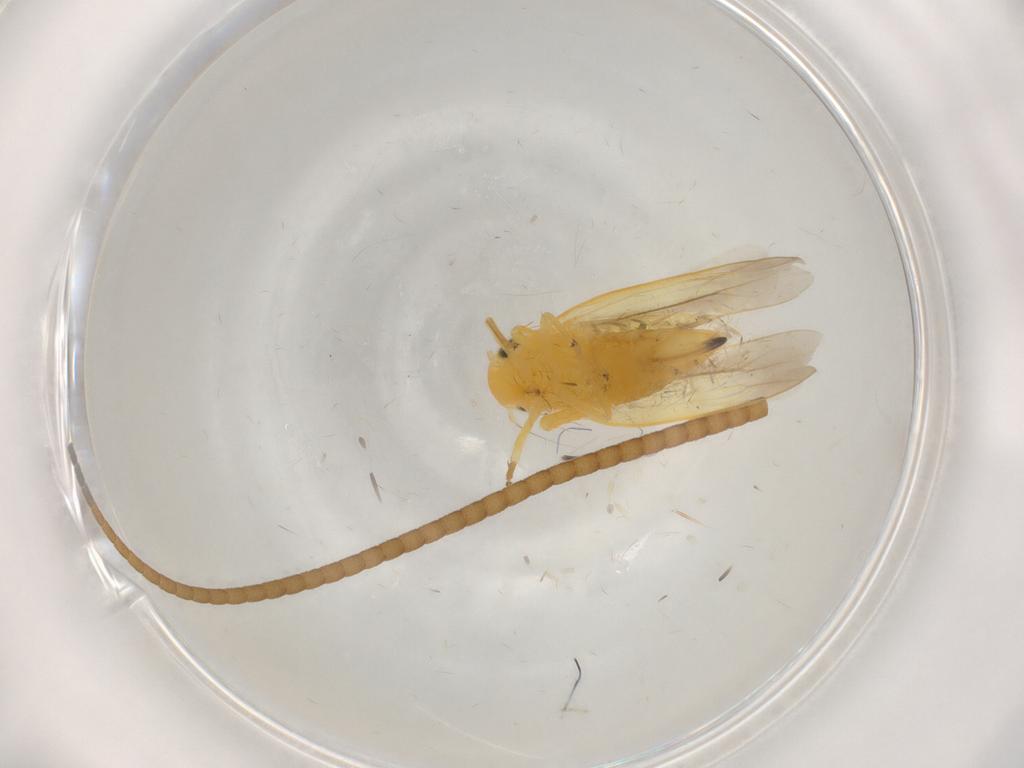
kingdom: Animalia
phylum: Arthropoda
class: Insecta
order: Hemiptera
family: Cicadellidae
